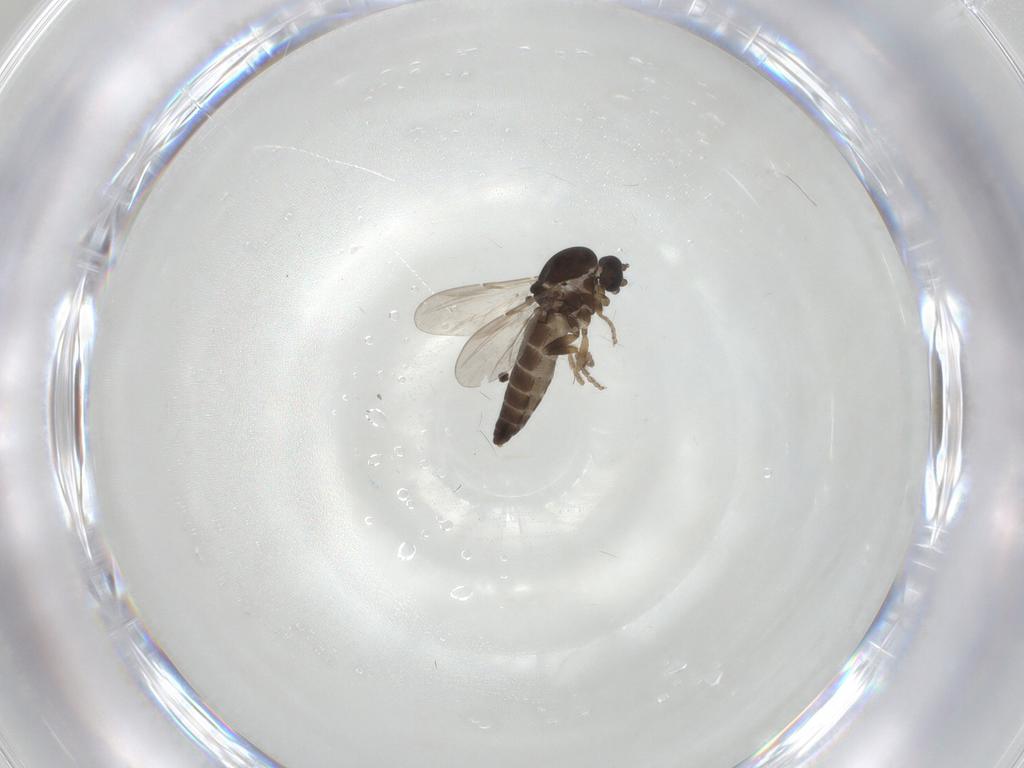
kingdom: Animalia
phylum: Arthropoda
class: Insecta
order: Diptera
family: Ceratopogonidae
